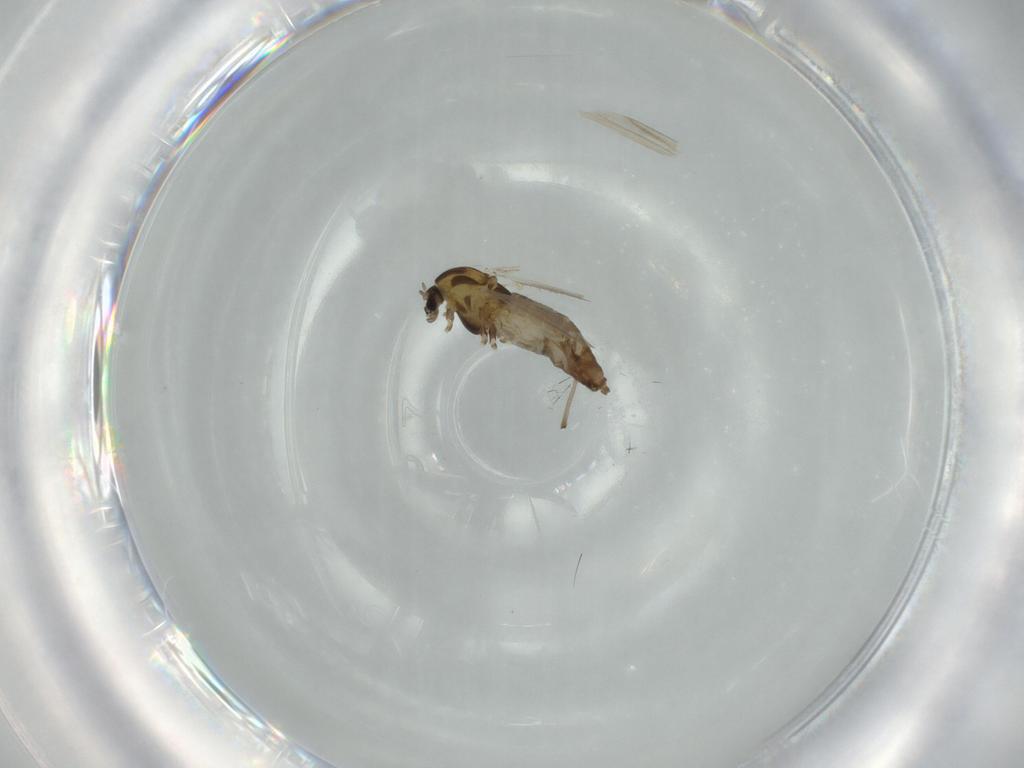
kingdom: Animalia
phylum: Arthropoda
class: Insecta
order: Diptera
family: Chironomidae
